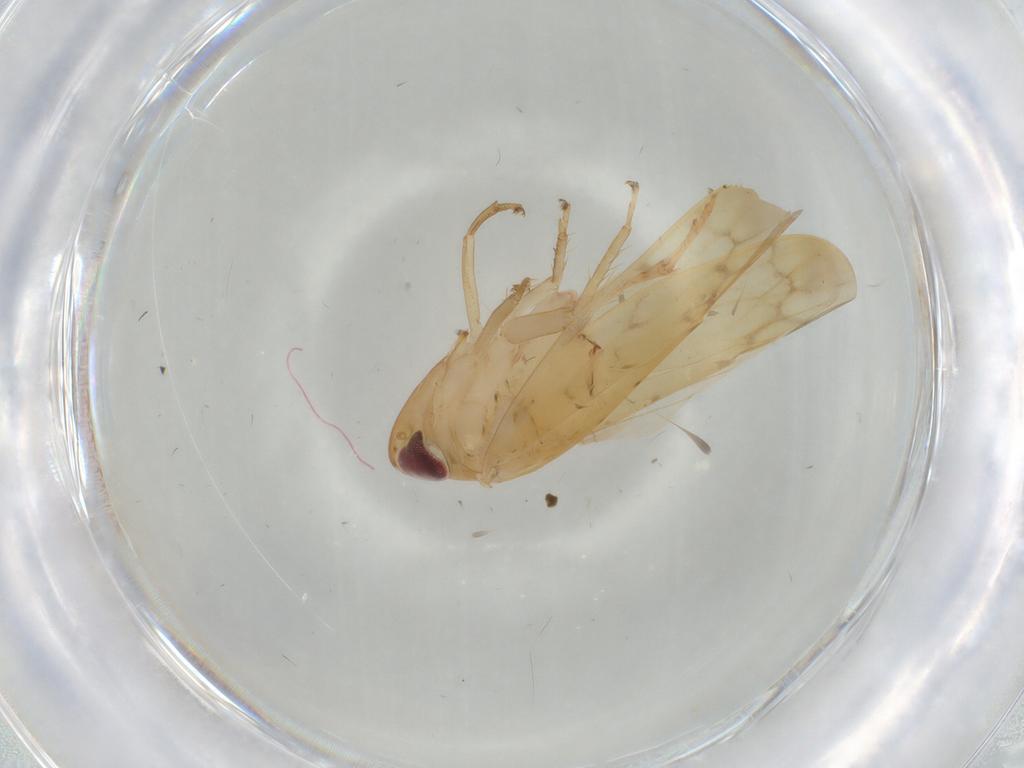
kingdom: Animalia
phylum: Arthropoda
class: Insecta
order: Hemiptera
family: Cicadellidae
